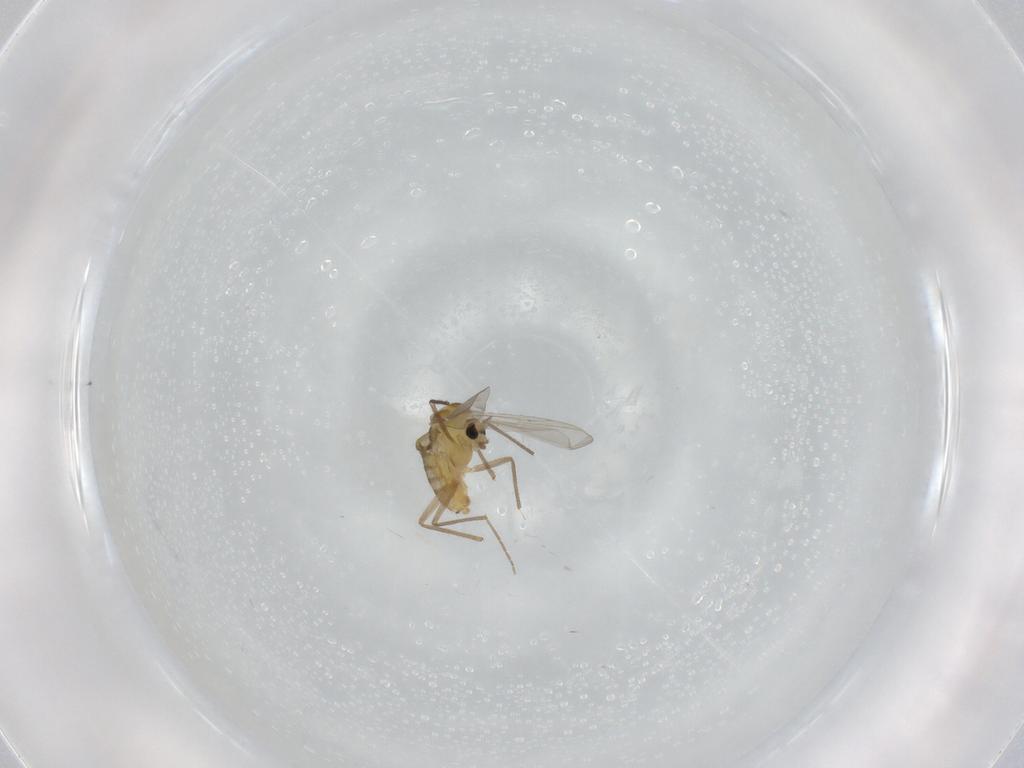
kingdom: Animalia
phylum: Arthropoda
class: Insecta
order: Diptera
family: Chironomidae
